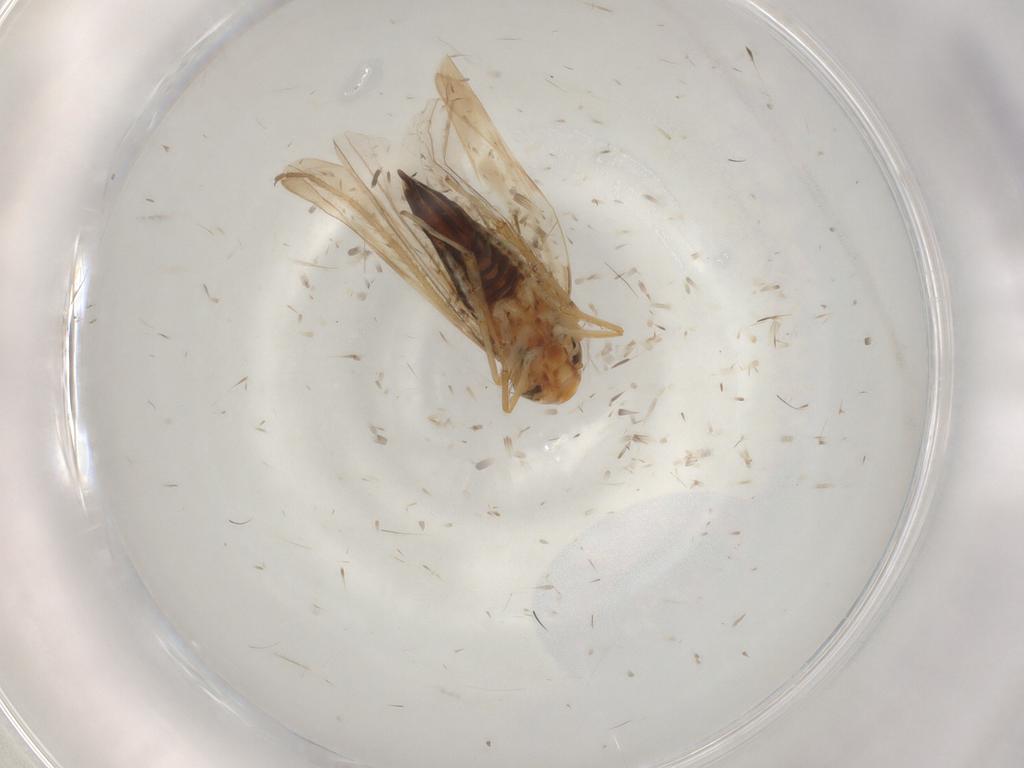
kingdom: Animalia
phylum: Arthropoda
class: Insecta
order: Hemiptera
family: Cicadellidae
